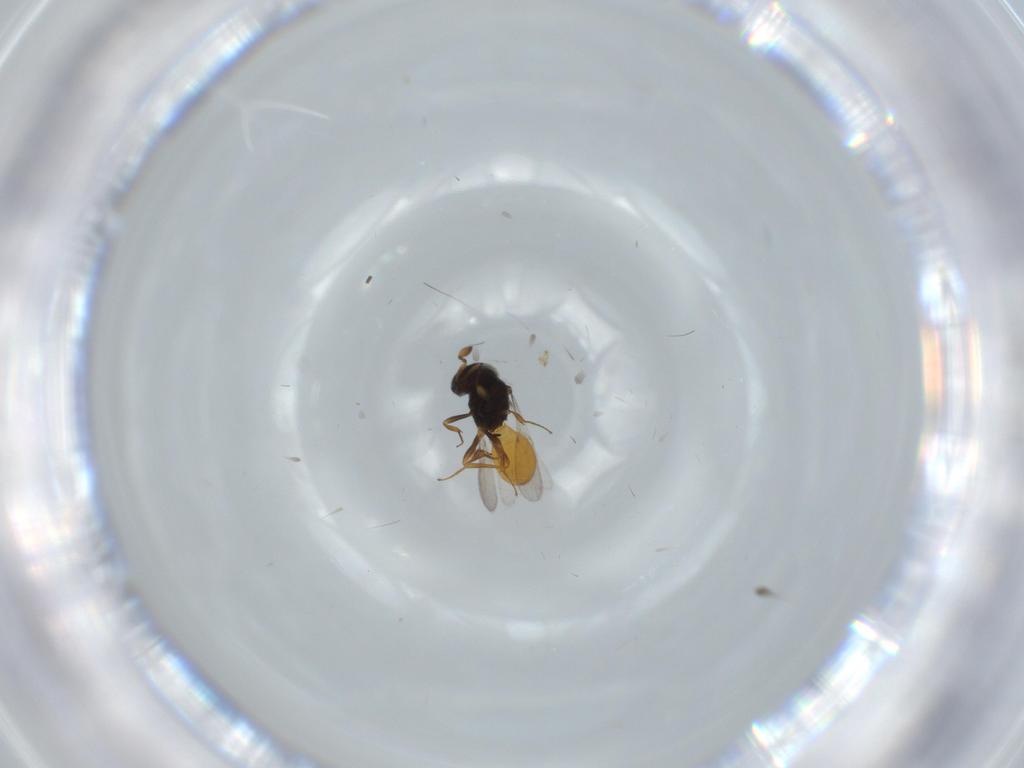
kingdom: Animalia
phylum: Arthropoda
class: Insecta
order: Hymenoptera
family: Scelionidae
